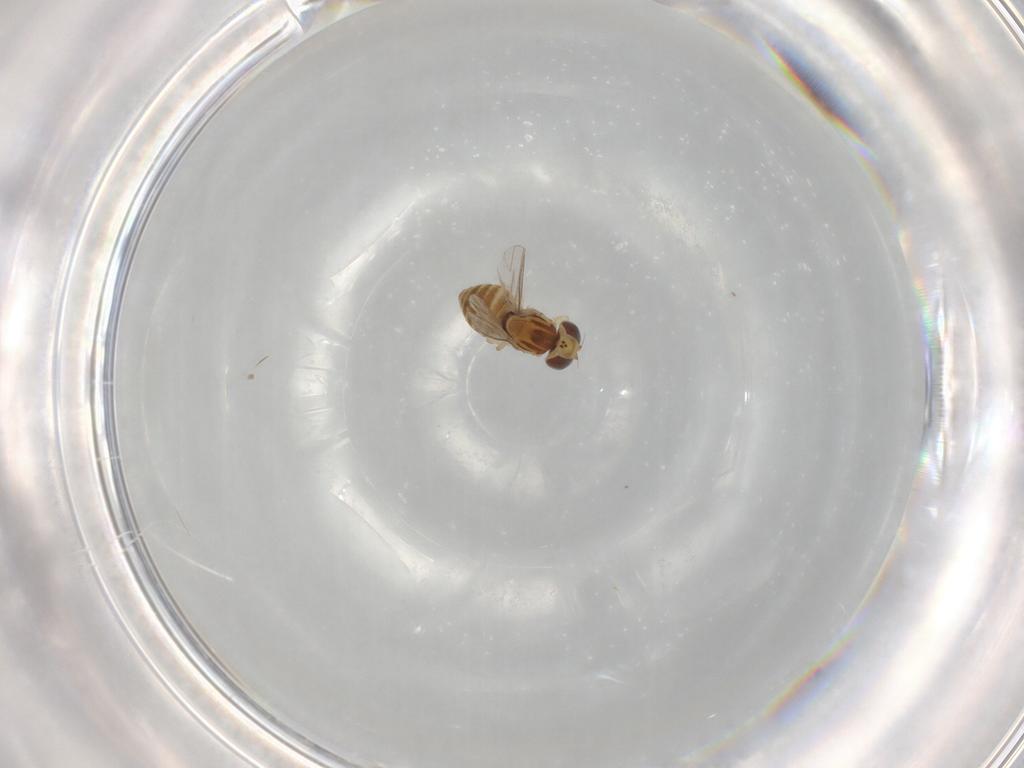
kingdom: Animalia
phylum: Arthropoda
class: Insecta
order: Diptera
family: Chyromyidae
